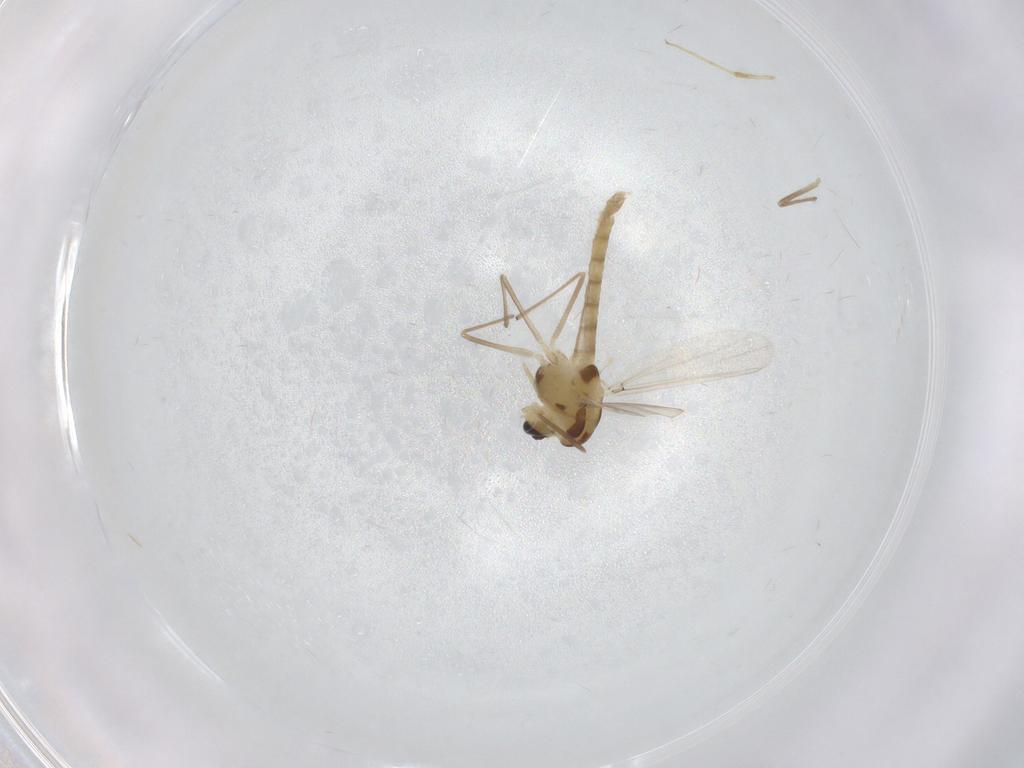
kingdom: Animalia
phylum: Arthropoda
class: Insecta
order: Diptera
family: Chironomidae
